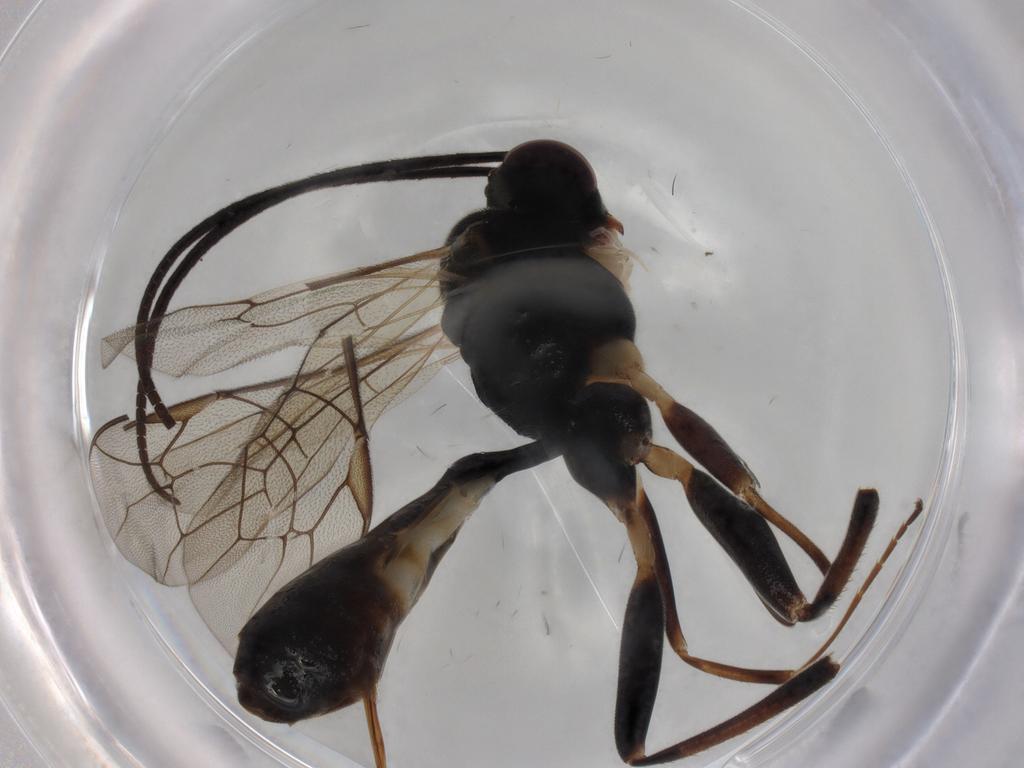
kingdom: Animalia
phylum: Arthropoda
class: Insecta
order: Hymenoptera
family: Ichneumonidae
